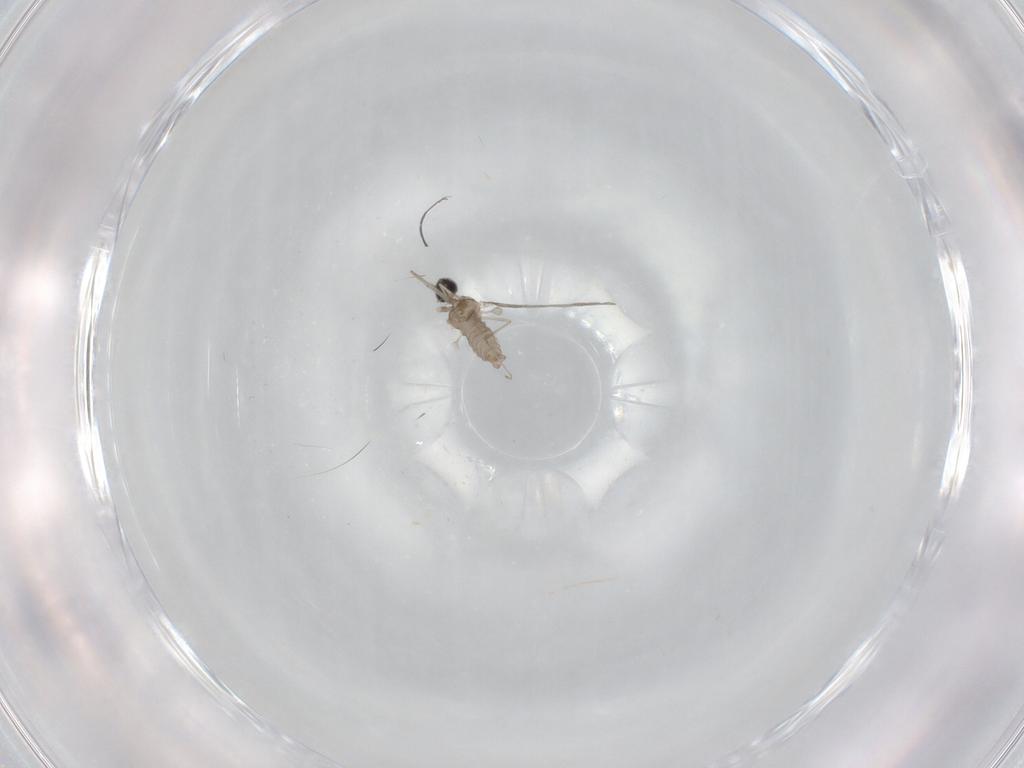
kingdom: Animalia
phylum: Arthropoda
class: Insecta
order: Diptera
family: Cecidomyiidae
